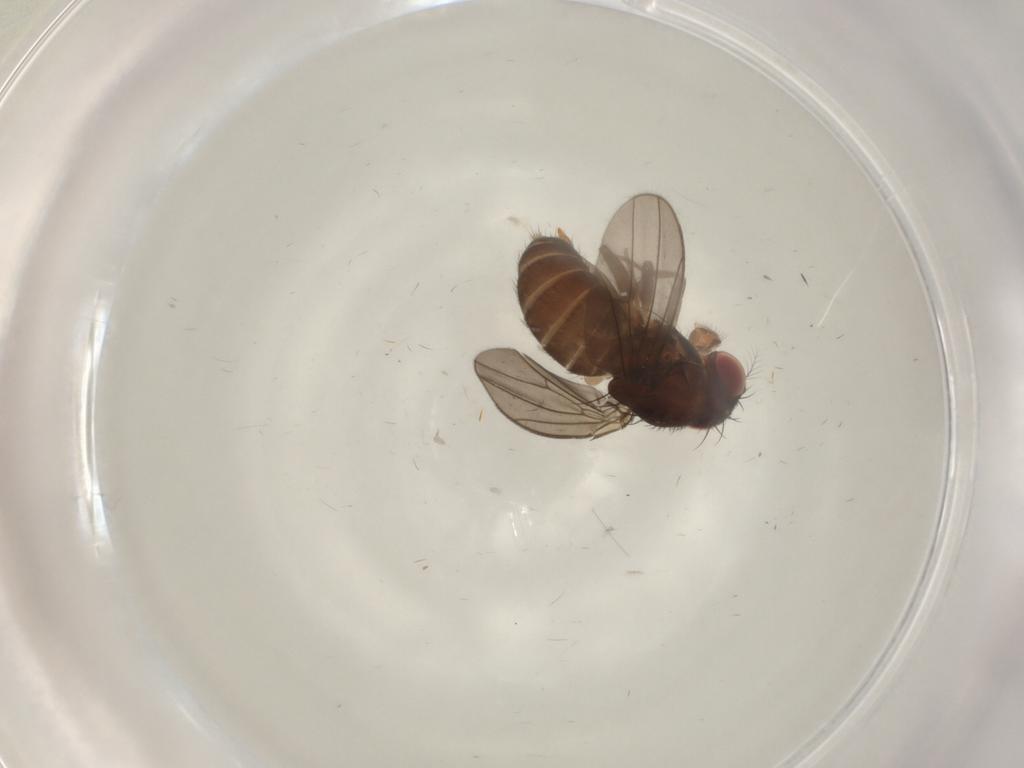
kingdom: Animalia
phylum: Arthropoda
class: Insecta
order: Diptera
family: Drosophilidae
